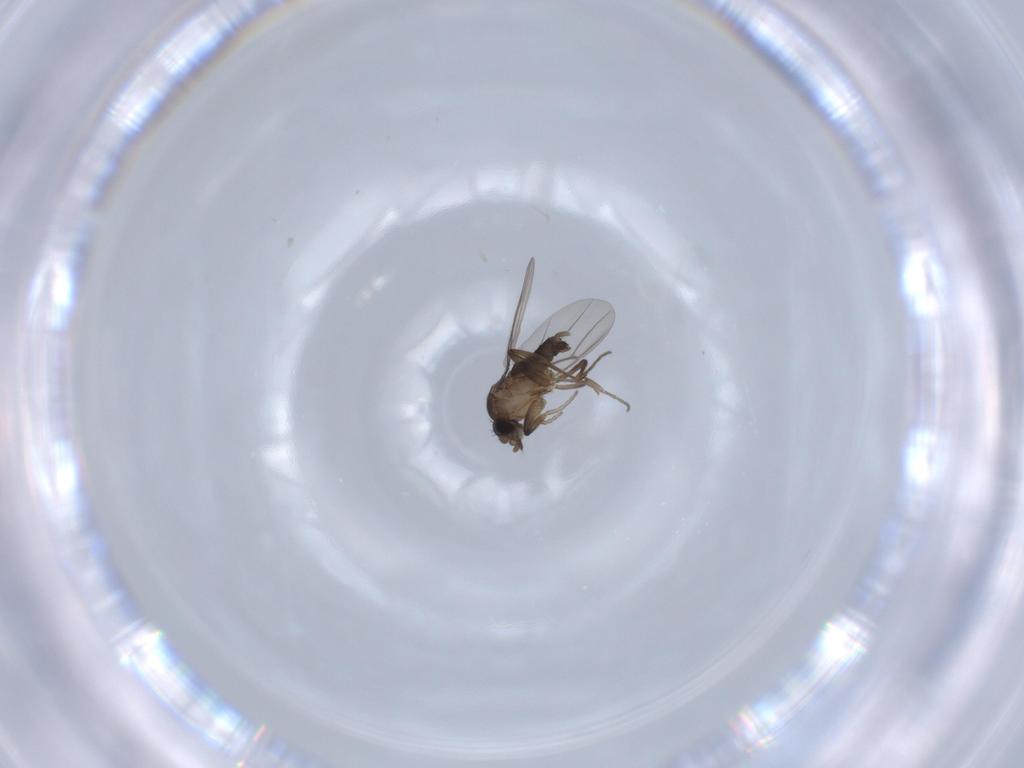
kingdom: Animalia
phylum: Arthropoda
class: Insecta
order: Diptera
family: Phoridae
